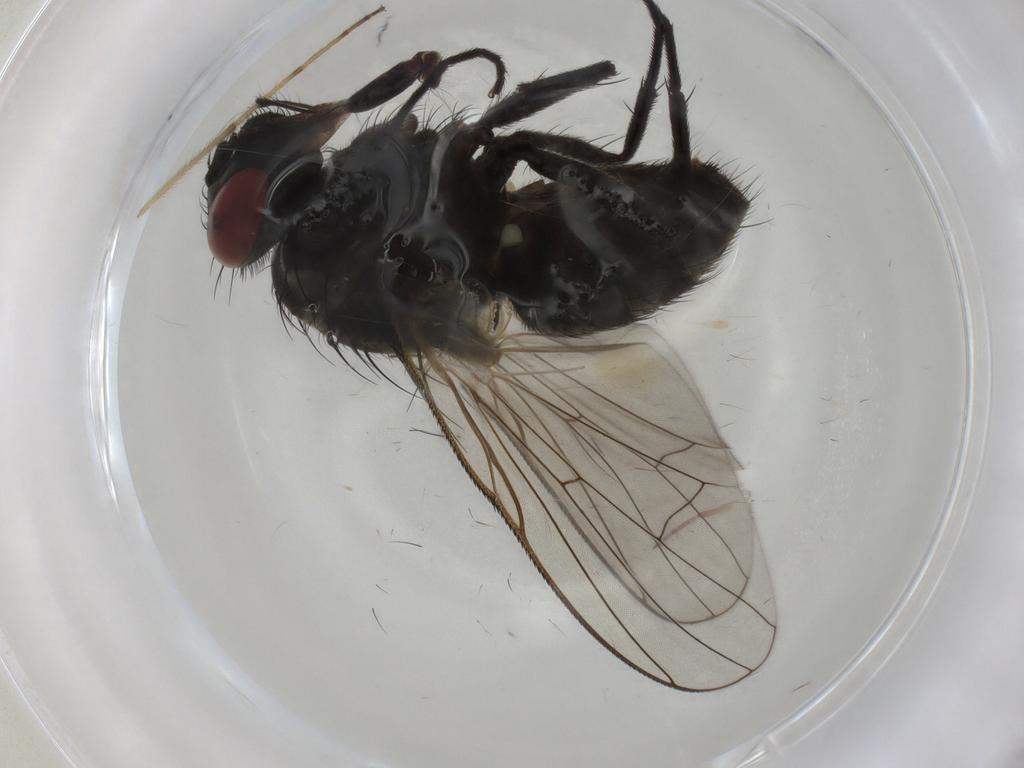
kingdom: Animalia
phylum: Arthropoda
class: Insecta
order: Diptera
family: Muscidae
